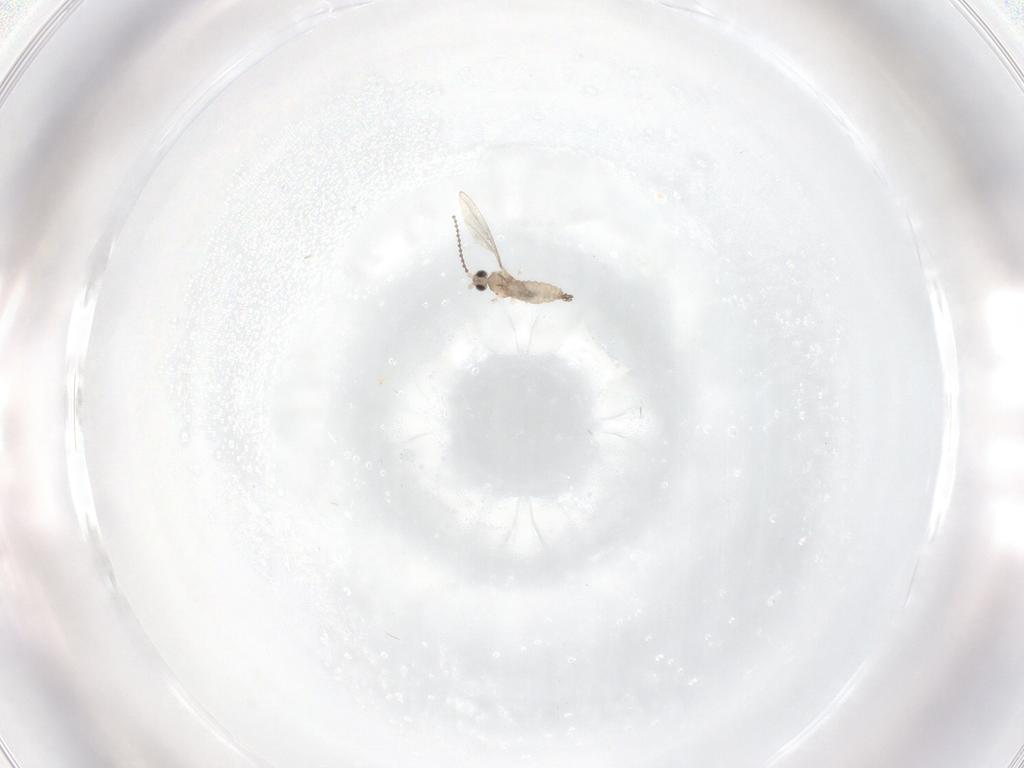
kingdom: Animalia
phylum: Arthropoda
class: Insecta
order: Diptera
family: Cecidomyiidae
